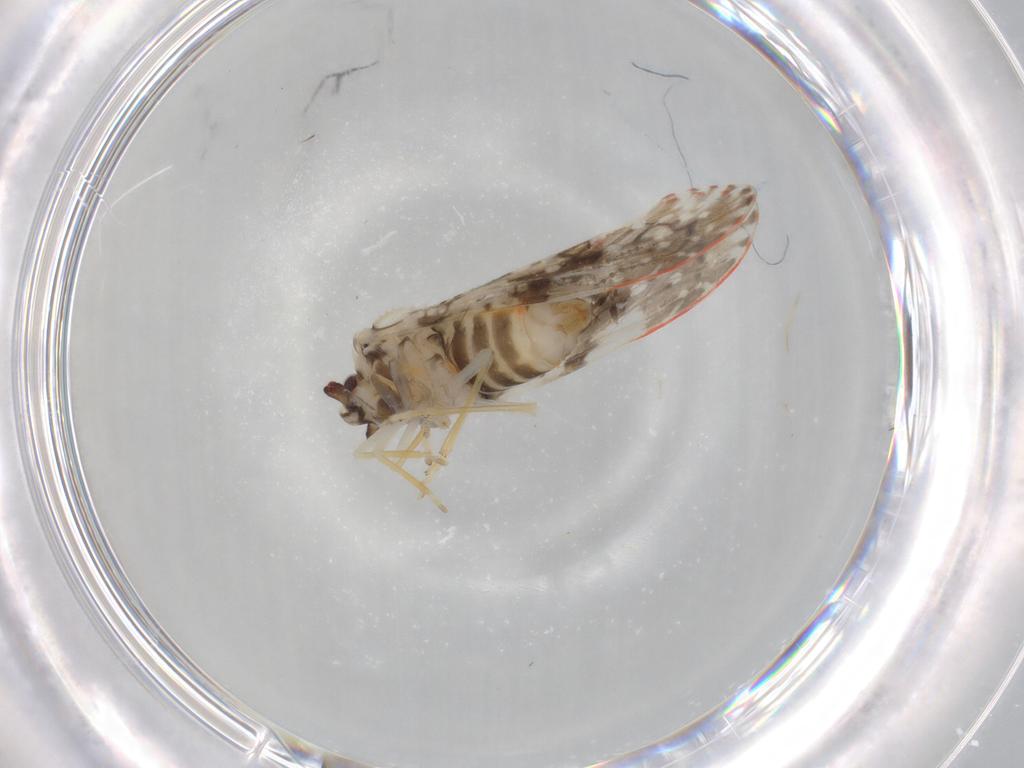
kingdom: Animalia
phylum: Arthropoda
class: Insecta
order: Hemiptera
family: Derbidae
